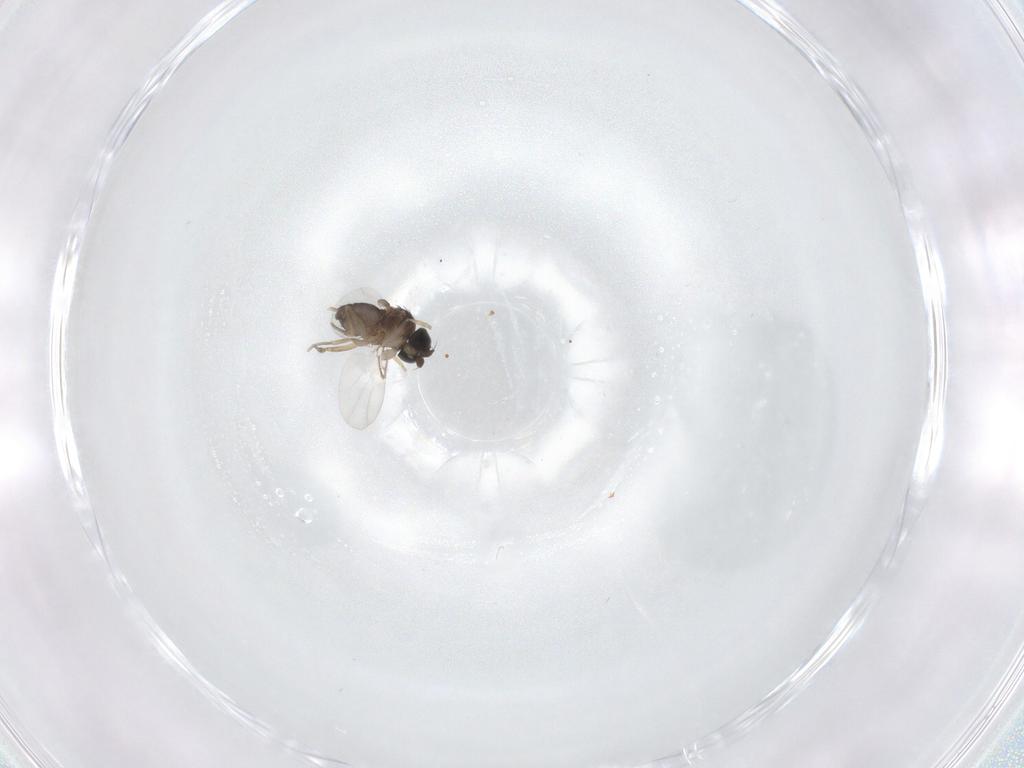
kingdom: Animalia
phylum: Arthropoda
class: Insecta
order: Diptera
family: Phoridae
